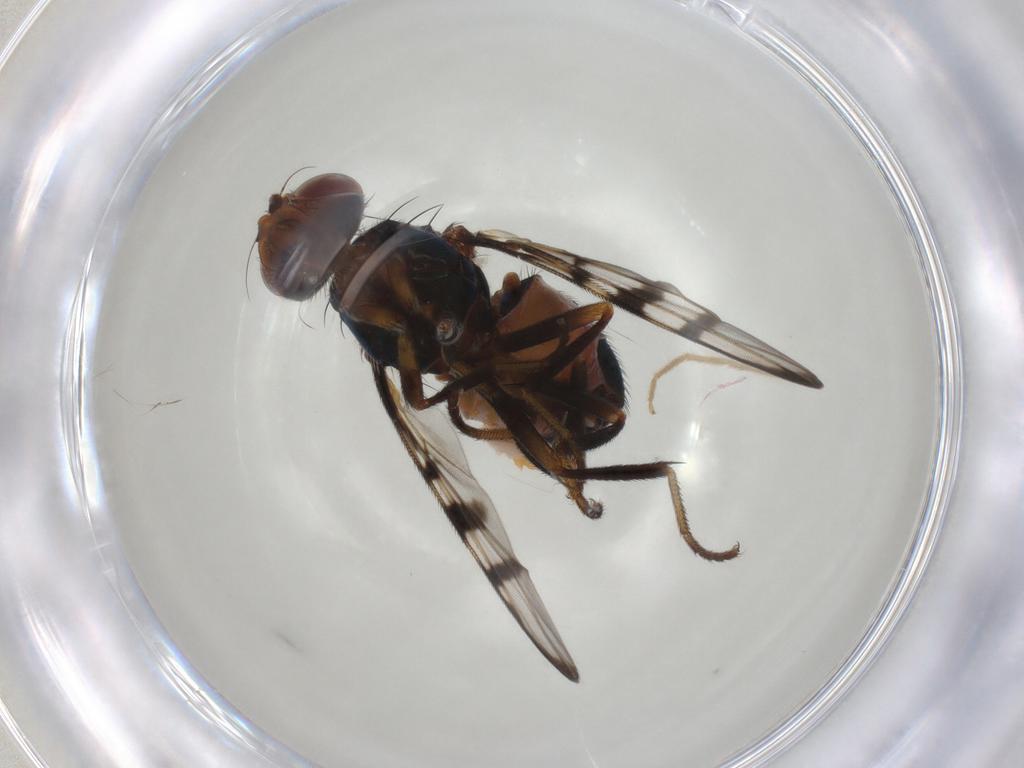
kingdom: Animalia
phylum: Arthropoda
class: Insecta
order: Diptera
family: Platystomatidae
